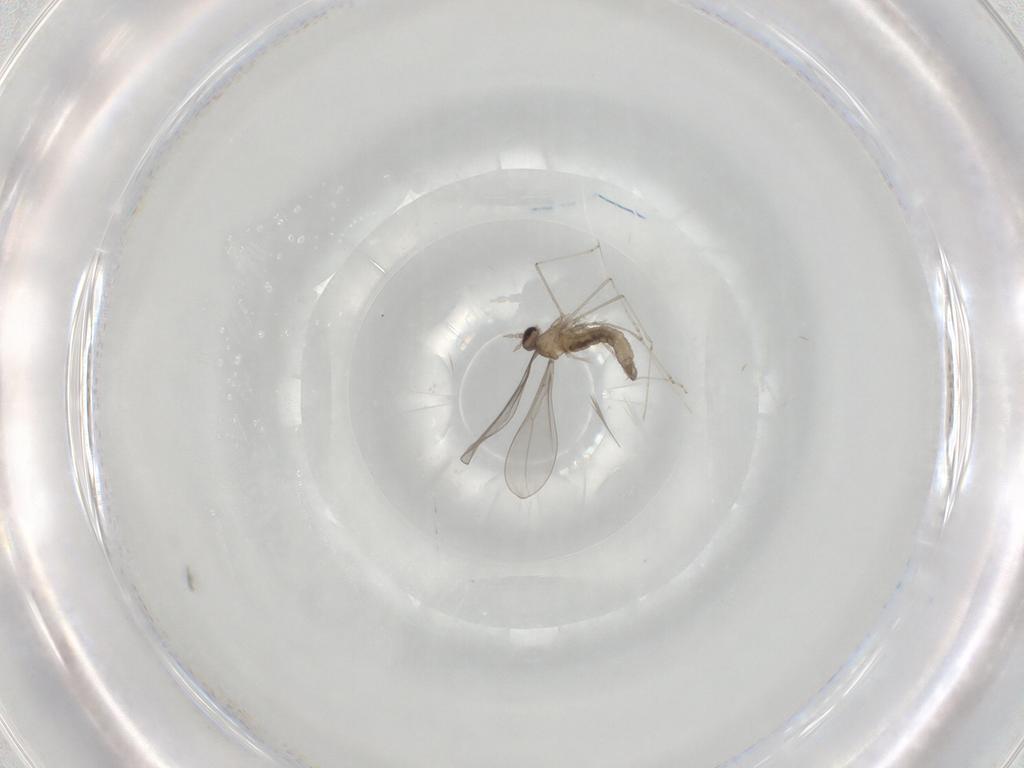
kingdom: Animalia
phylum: Arthropoda
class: Insecta
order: Diptera
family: Cecidomyiidae
